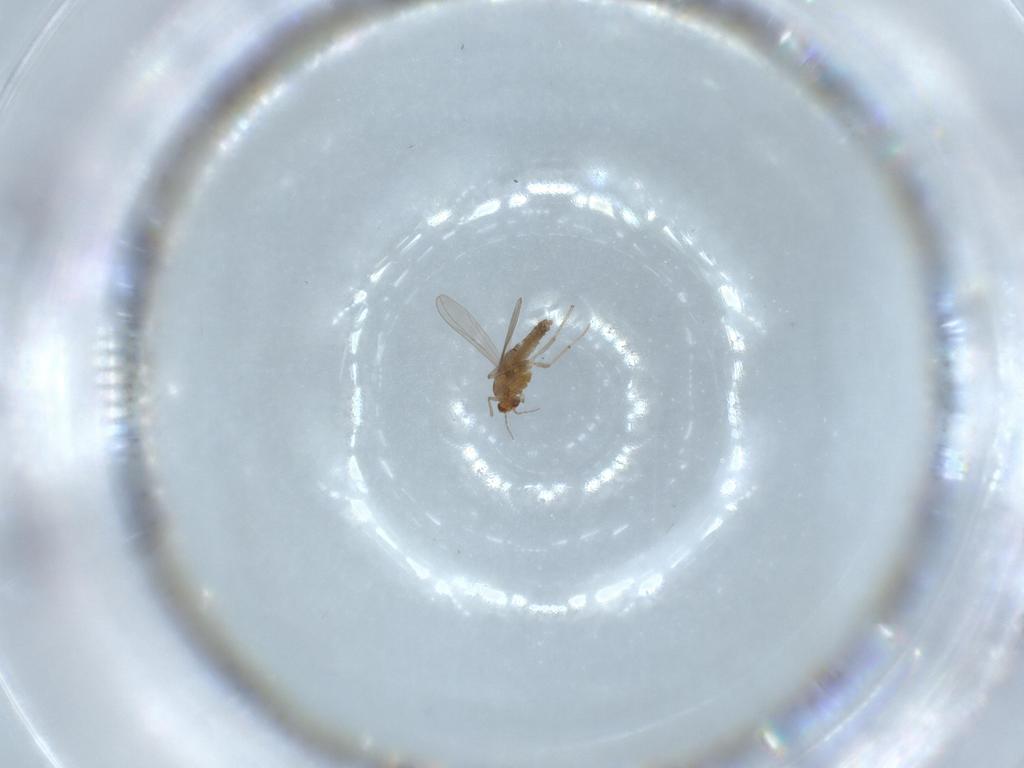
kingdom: Animalia
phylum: Arthropoda
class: Insecta
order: Diptera
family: Chironomidae
